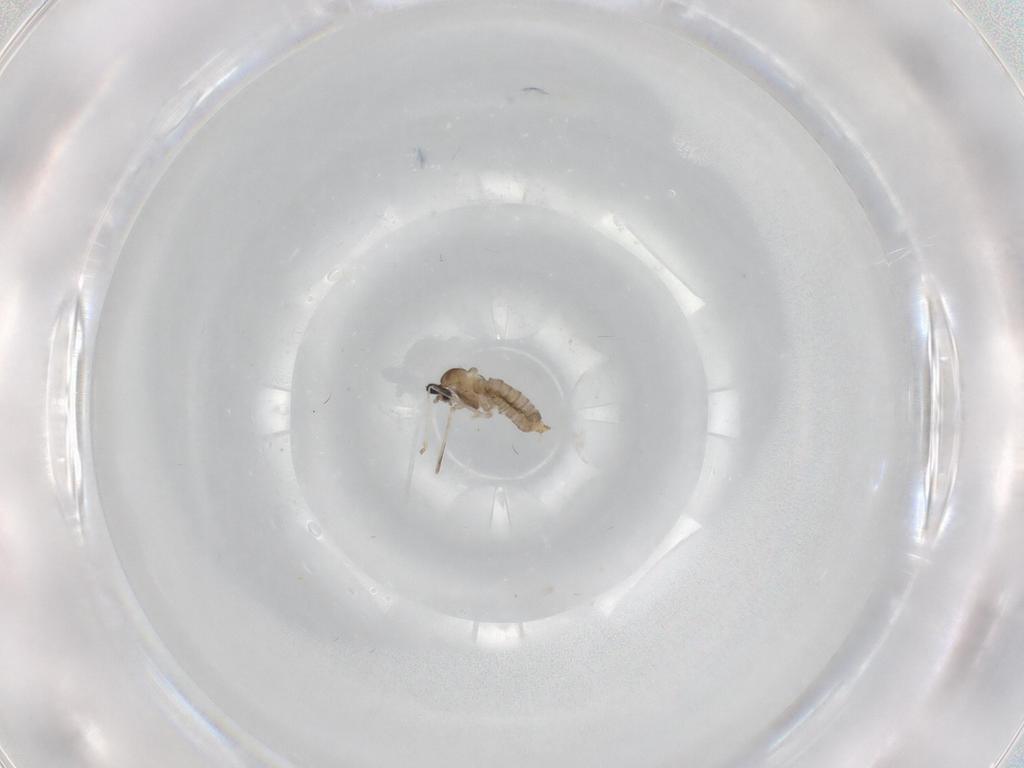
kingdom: Animalia
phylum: Arthropoda
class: Insecta
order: Diptera
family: Cecidomyiidae
